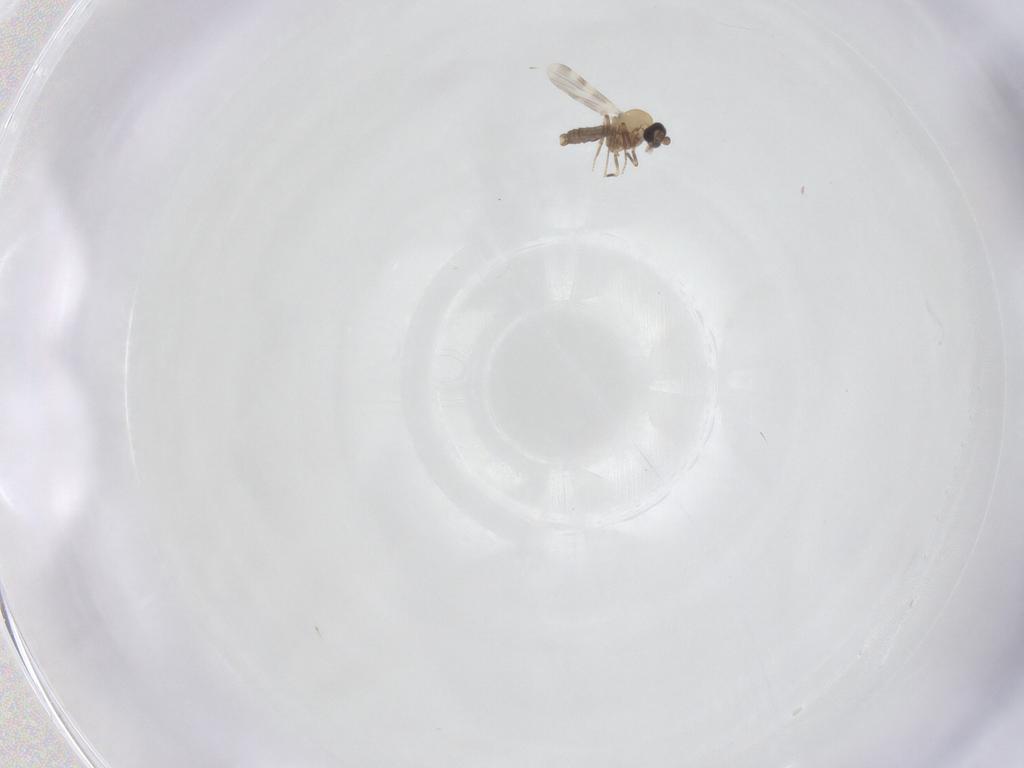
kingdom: Animalia
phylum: Arthropoda
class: Insecta
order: Diptera
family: Ceratopogonidae
